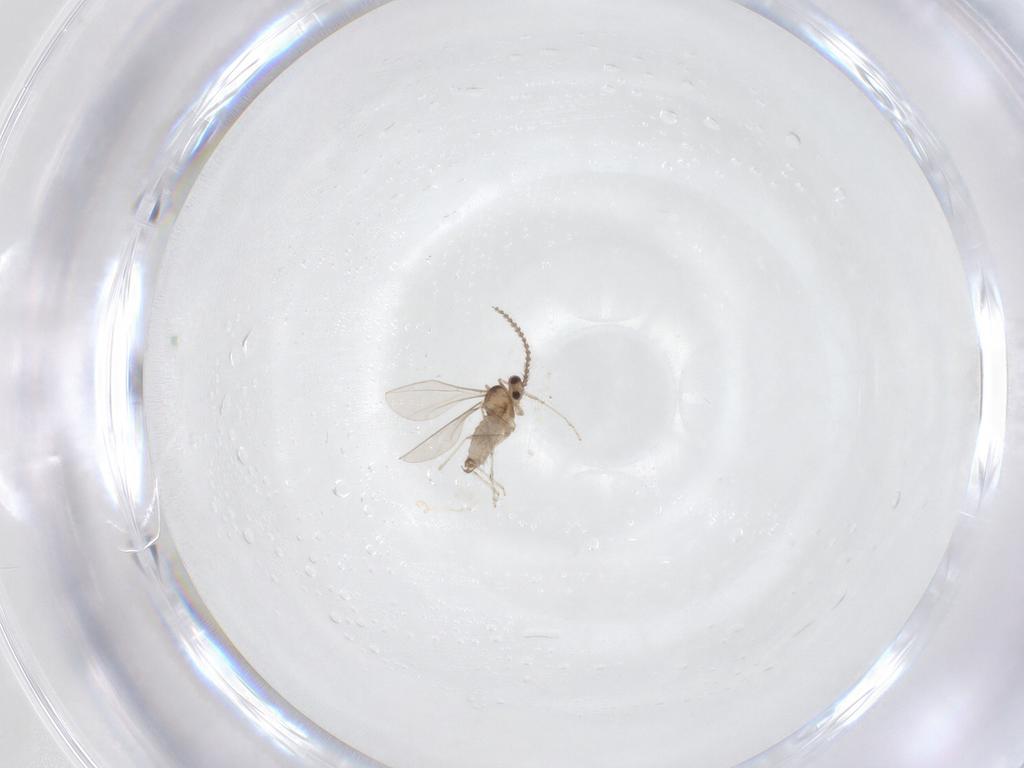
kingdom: Animalia
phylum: Arthropoda
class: Insecta
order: Diptera
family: Cecidomyiidae
